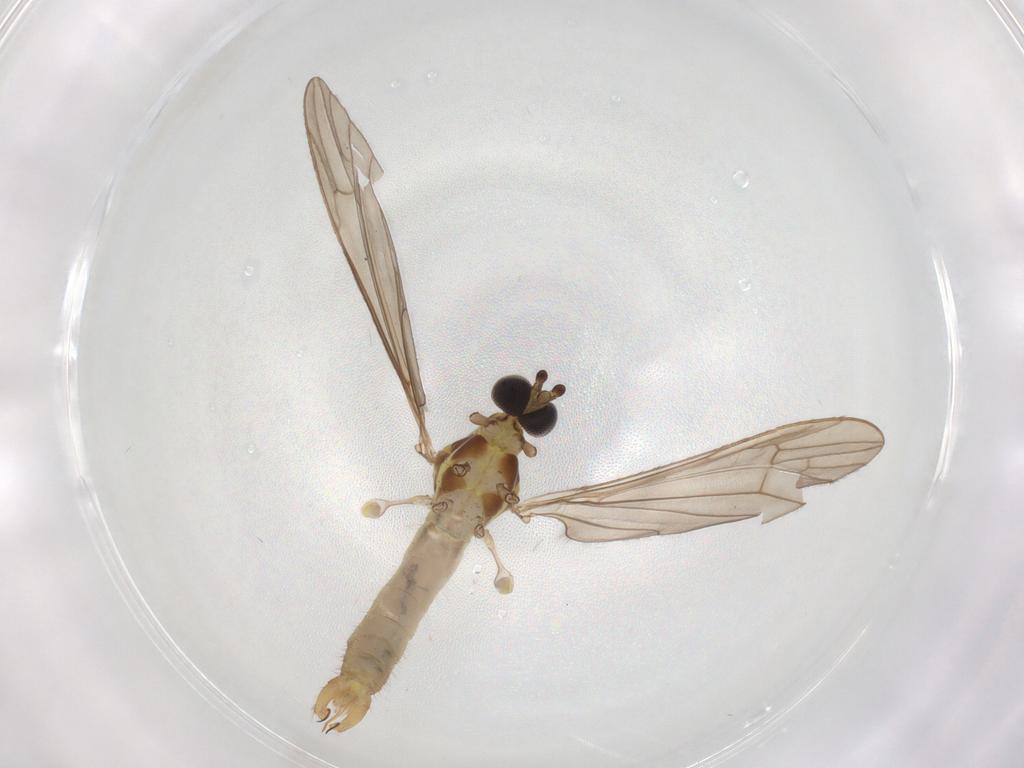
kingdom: Animalia
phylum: Arthropoda
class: Insecta
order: Diptera
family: Limoniidae
